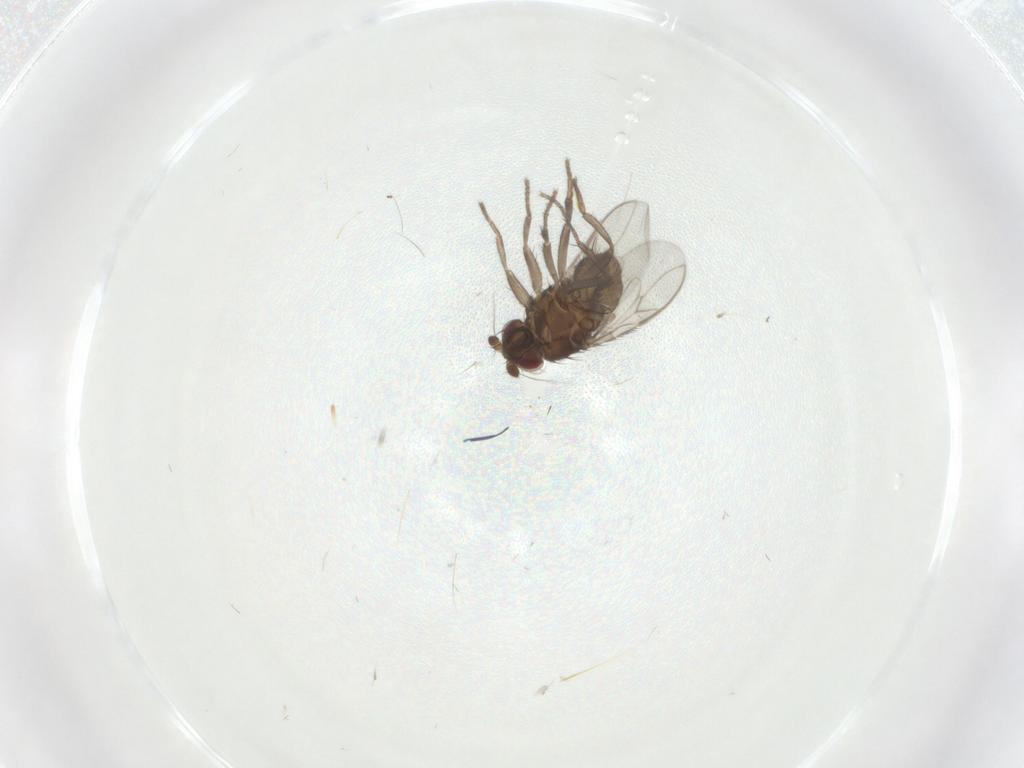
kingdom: Animalia
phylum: Arthropoda
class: Insecta
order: Diptera
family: Sphaeroceridae
